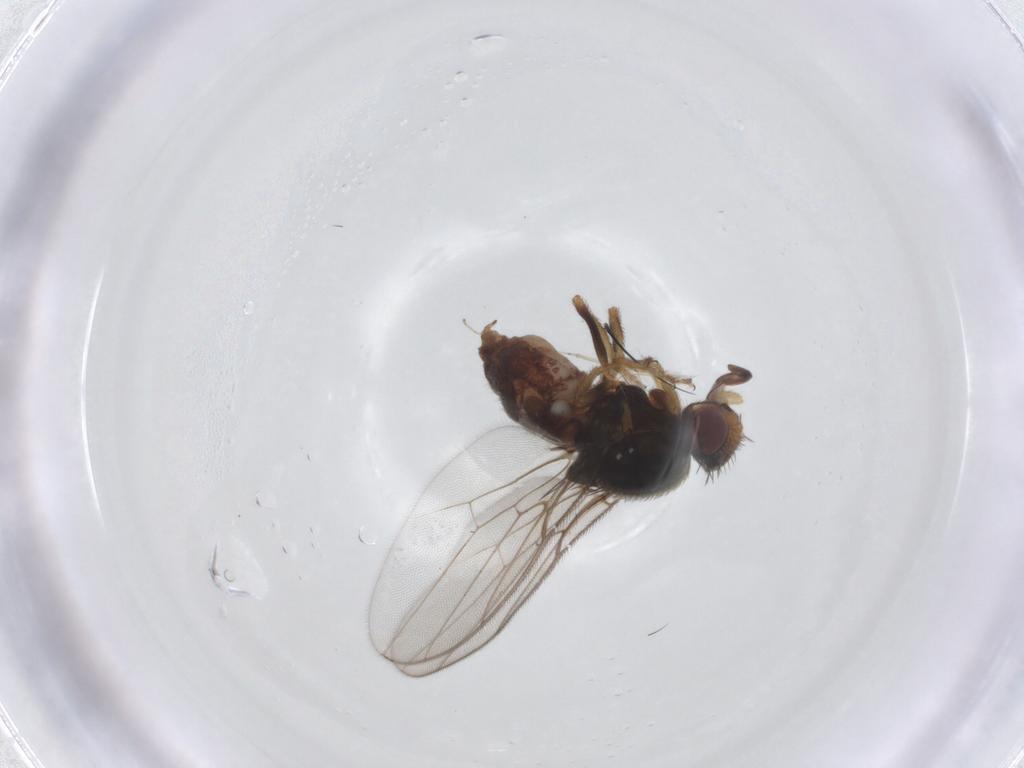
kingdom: Animalia
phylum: Arthropoda
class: Insecta
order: Diptera
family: Chloropidae
